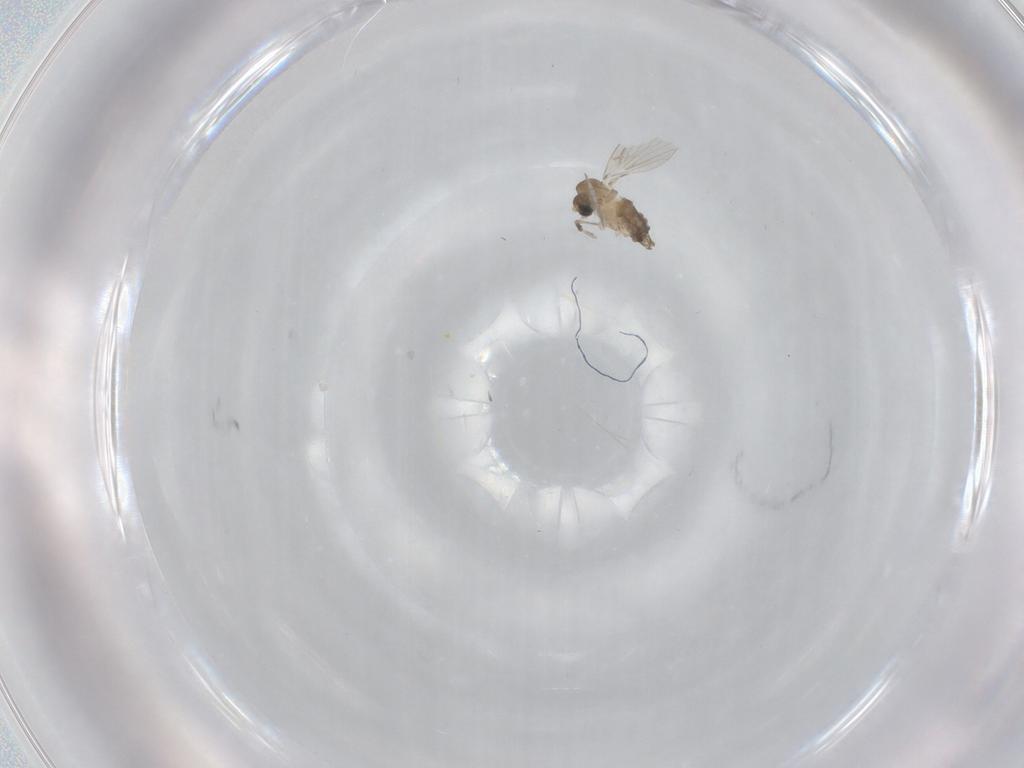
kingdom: Animalia
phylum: Arthropoda
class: Insecta
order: Diptera
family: Psychodidae
